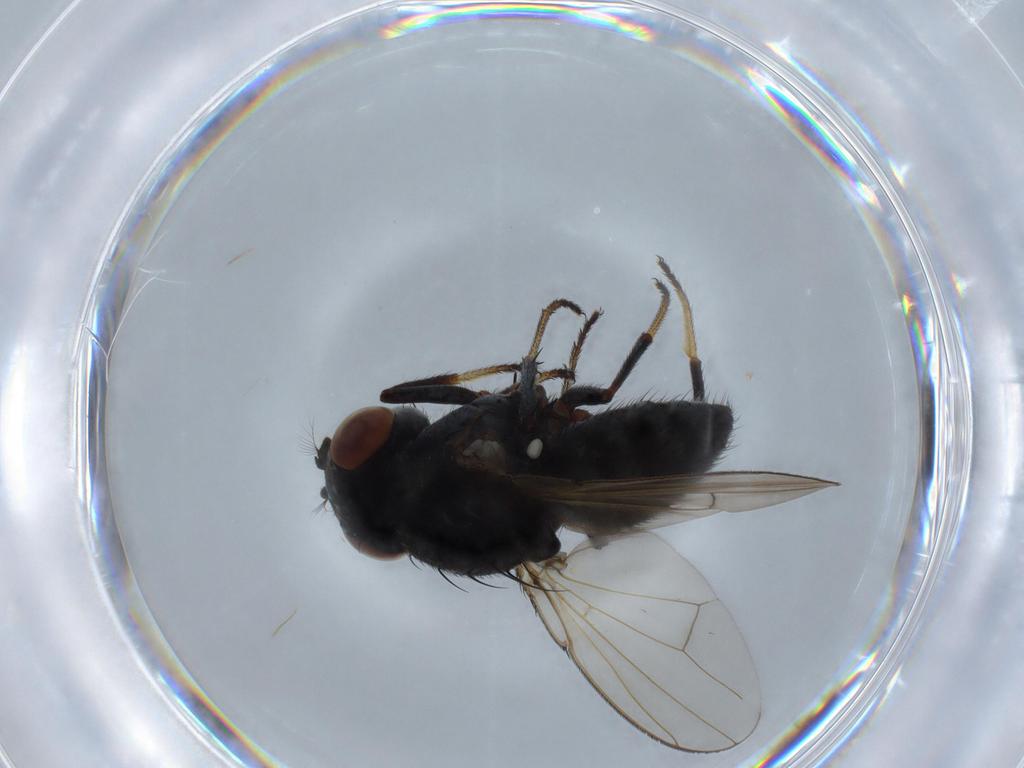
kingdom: Animalia
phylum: Arthropoda
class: Insecta
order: Diptera
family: Ephydridae
